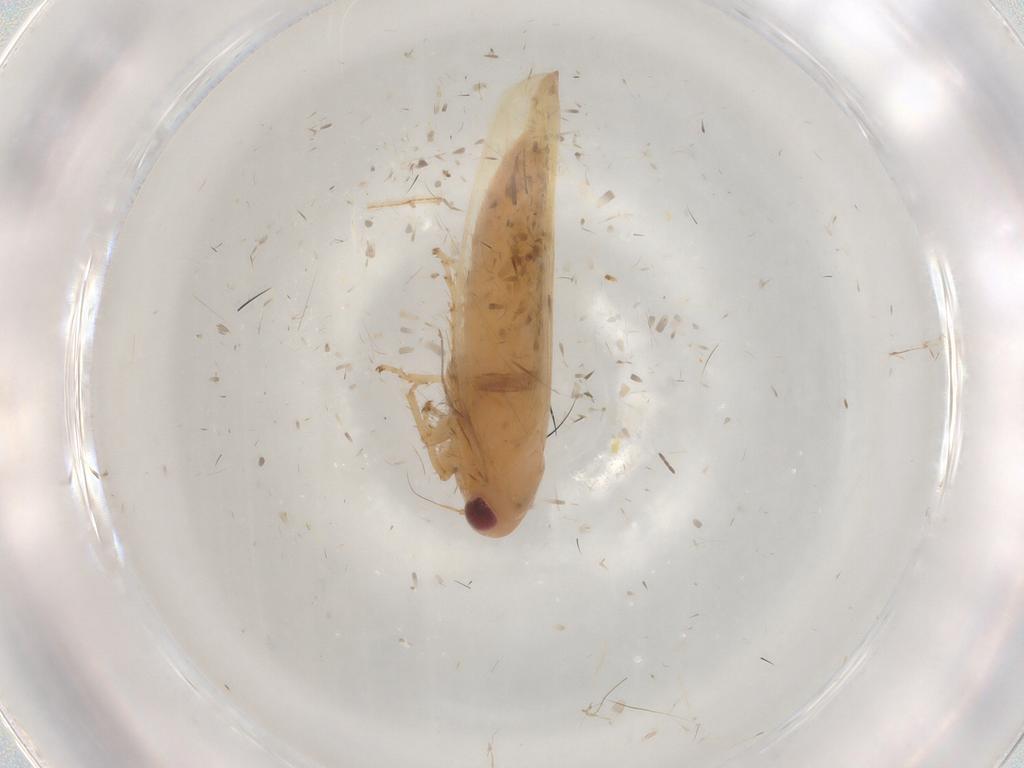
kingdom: Animalia
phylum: Arthropoda
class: Insecta
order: Hemiptera
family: Cicadellidae
